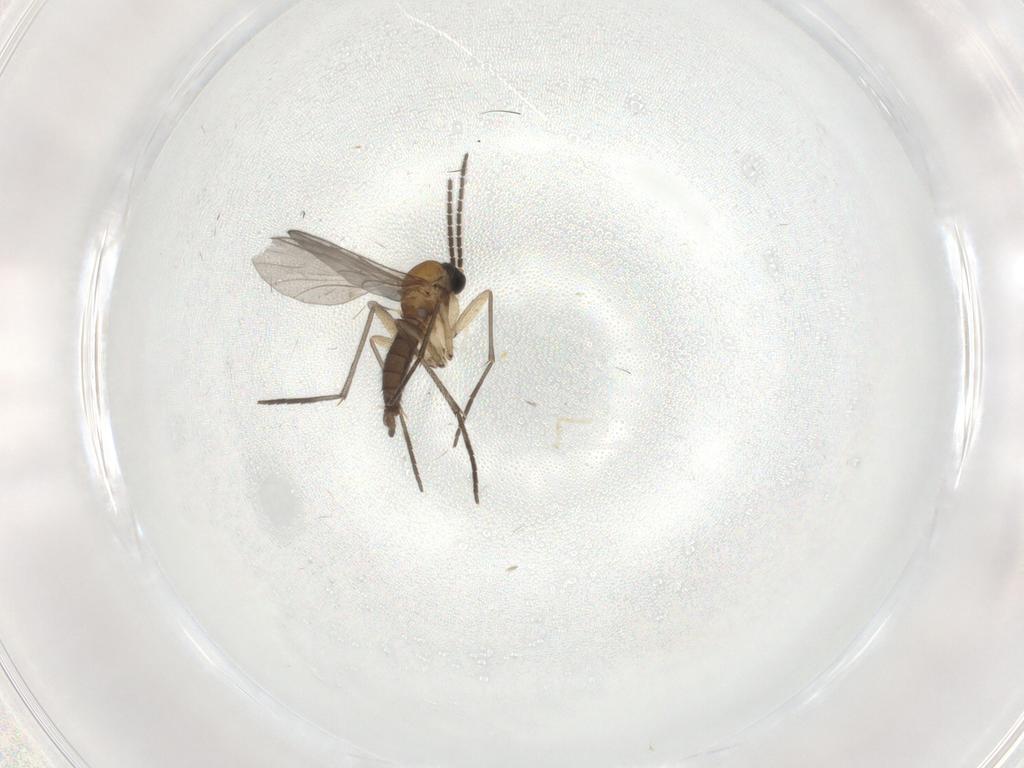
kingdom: Animalia
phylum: Arthropoda
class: Insecta
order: Diptera
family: Sciaridae
